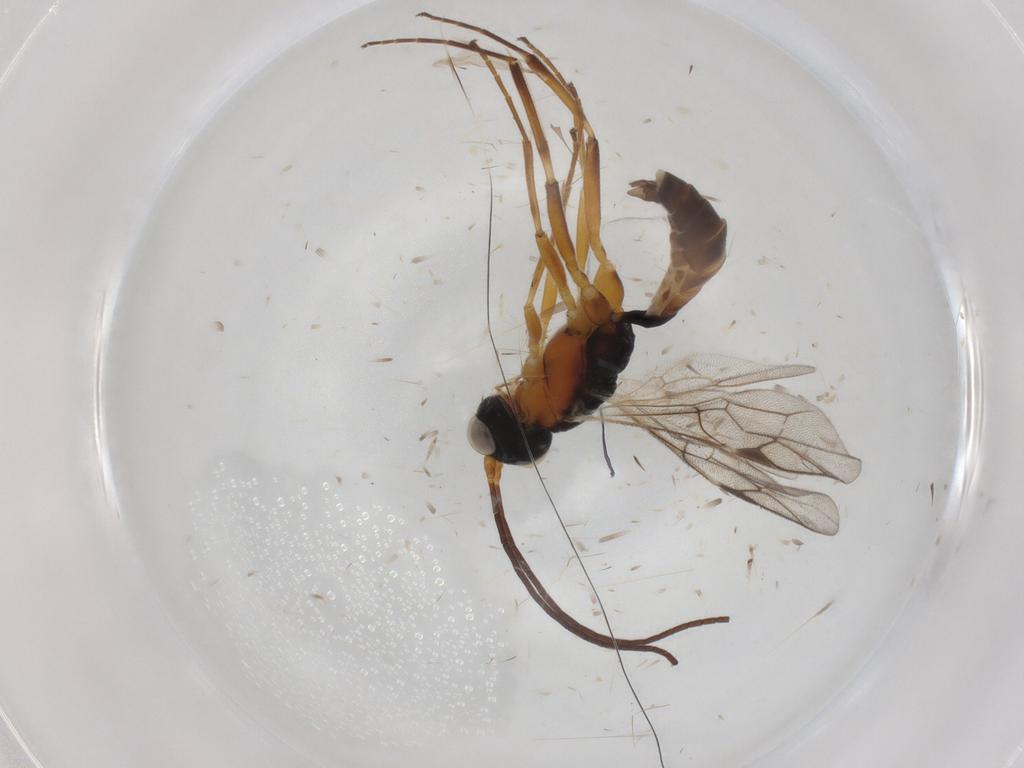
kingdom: Animalia
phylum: Arthropoda
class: Insecta
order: Hymenoptera
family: Ichneumonidae
